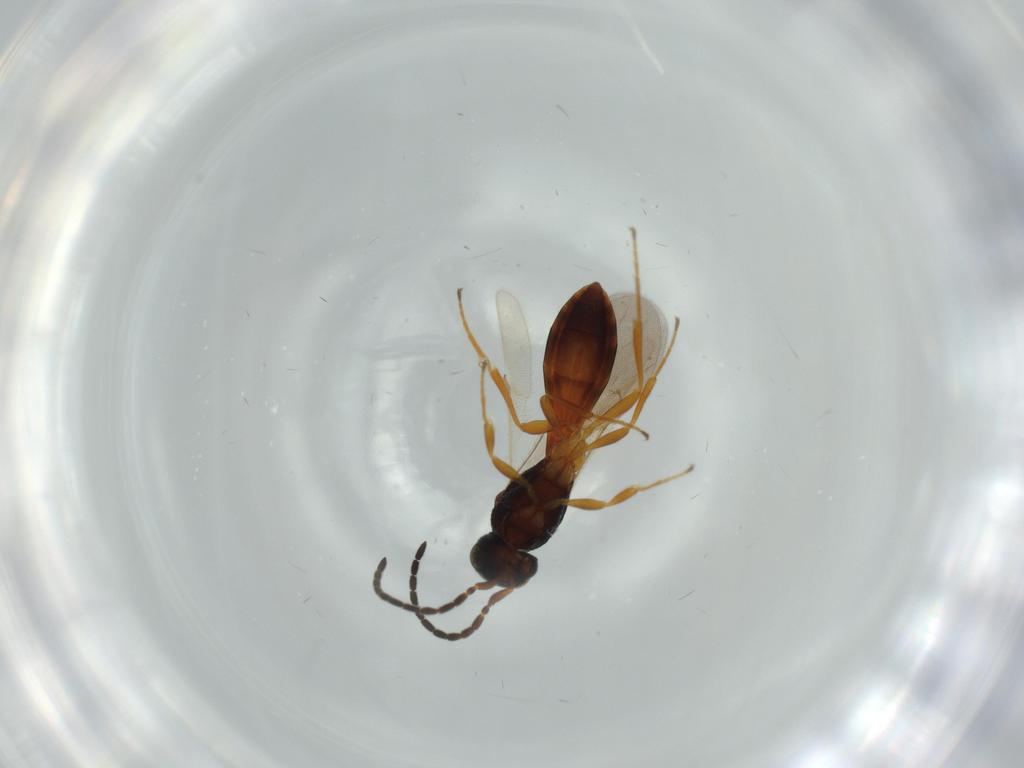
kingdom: Animalia
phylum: Arthropoda
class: Insecta
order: Hymenoptera
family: Scelionidae
